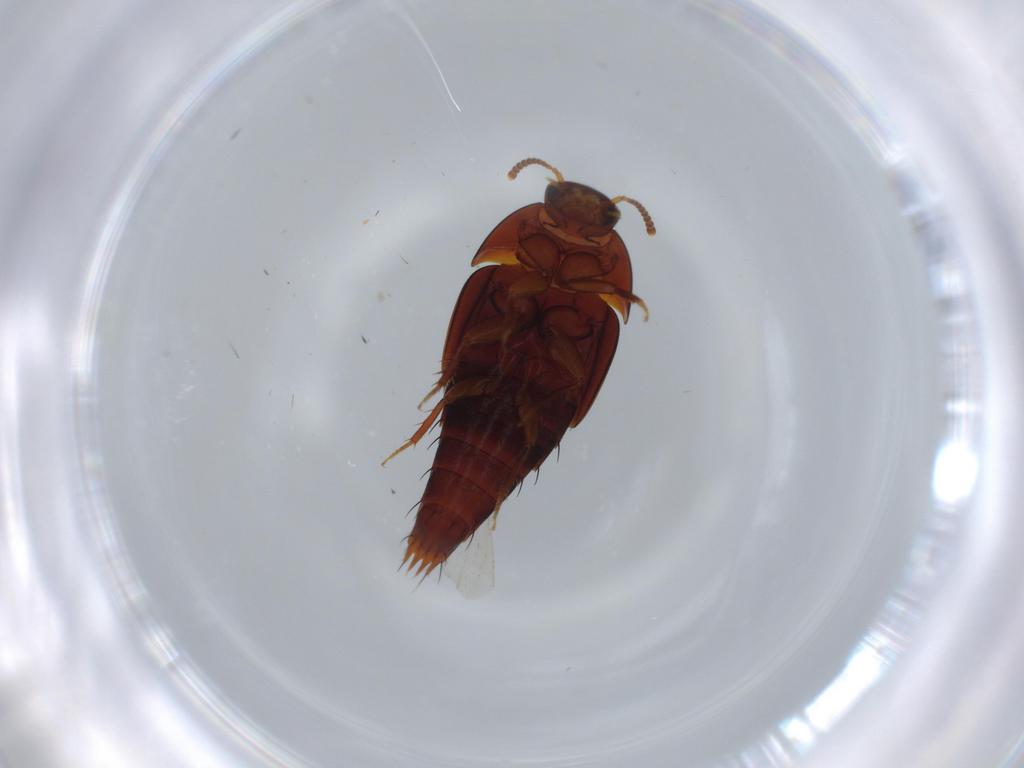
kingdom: Animalia
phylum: Arthropoda
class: Insecta
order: Coleoptera
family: Staphylinidae
